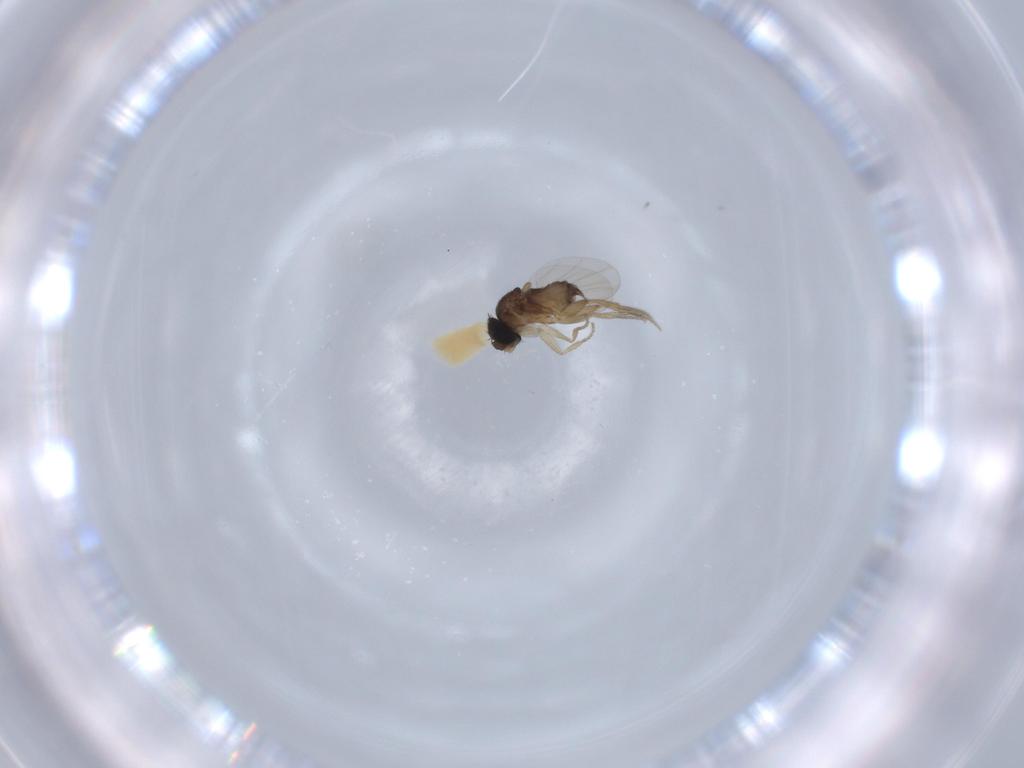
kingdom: Animalia
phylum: Arthropoda
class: Insecta
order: Diptera
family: Phoridae
